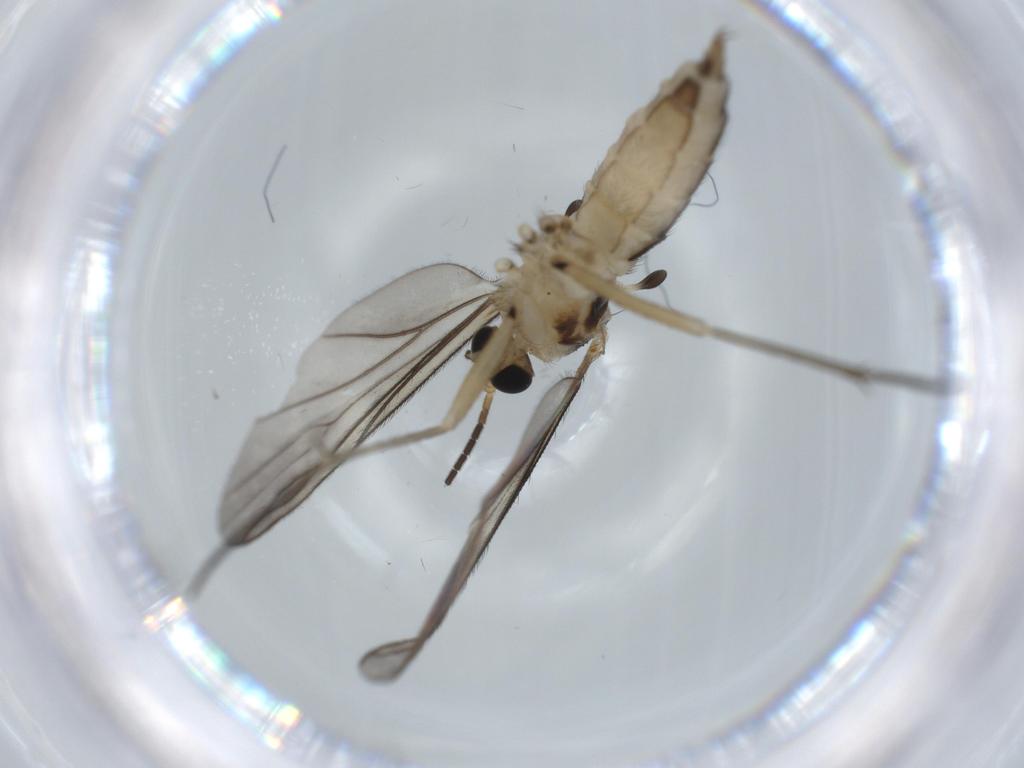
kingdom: Animalia
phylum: Arthropoda
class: Insecta
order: Diptera
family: Sciaridae
